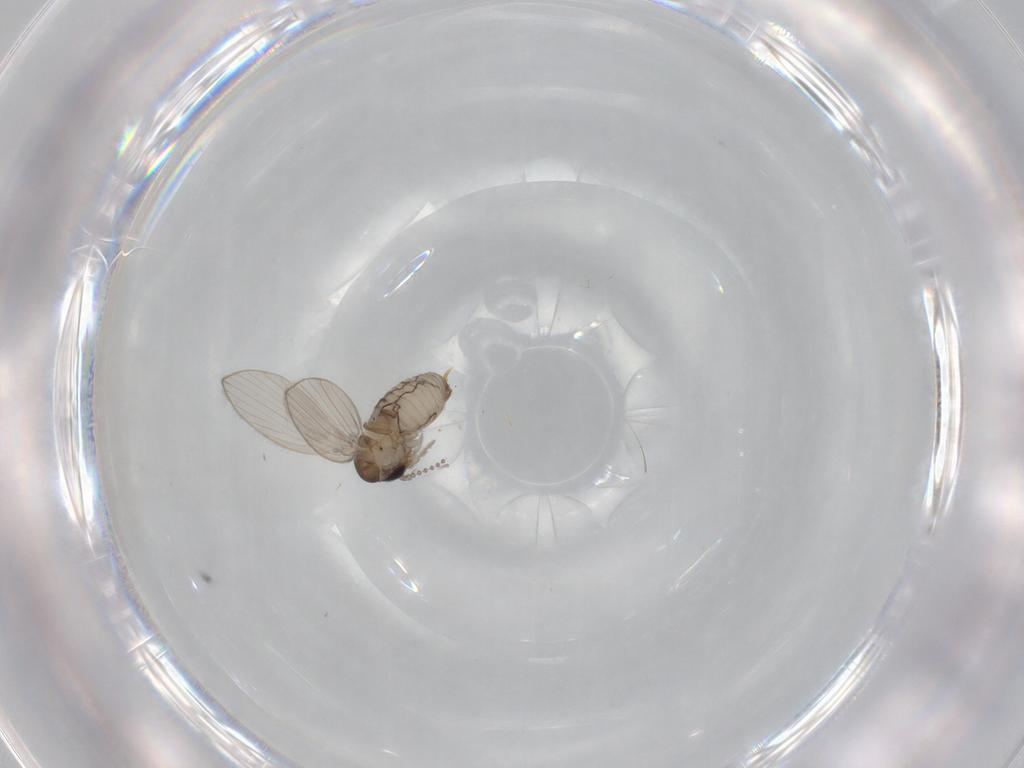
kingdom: Animalia
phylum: Arthropoda
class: Insecta
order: Diptera
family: Psychodidae
